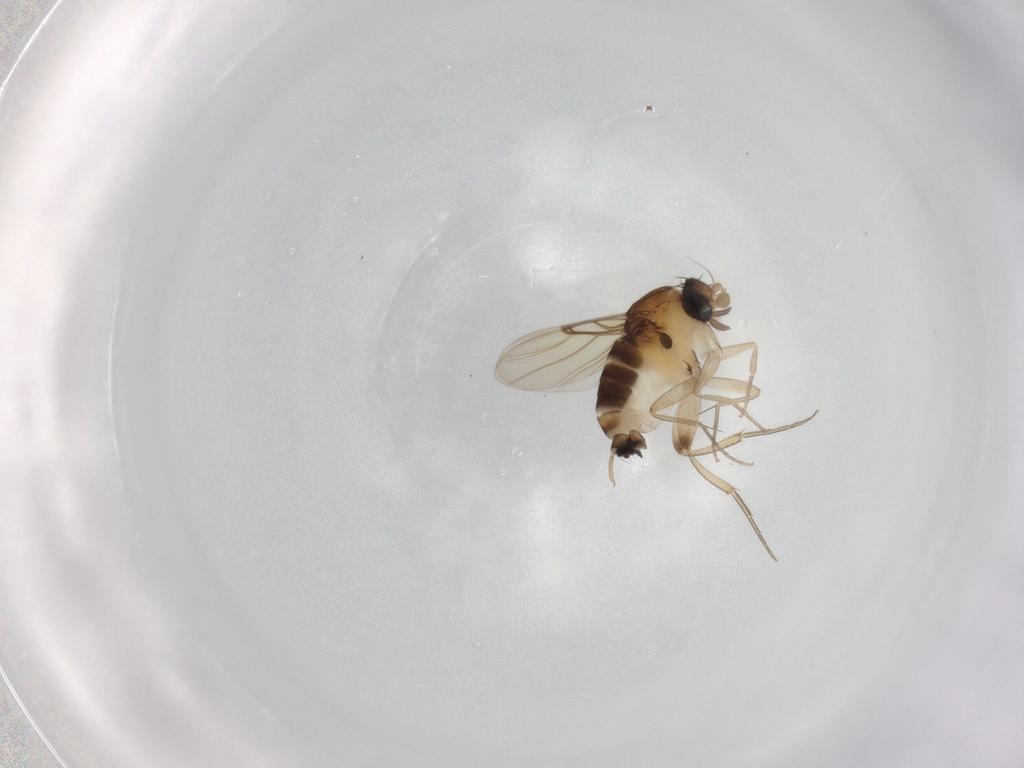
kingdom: Animalia
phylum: Arthropoda
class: Insecta
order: Diptera
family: Phoridae
